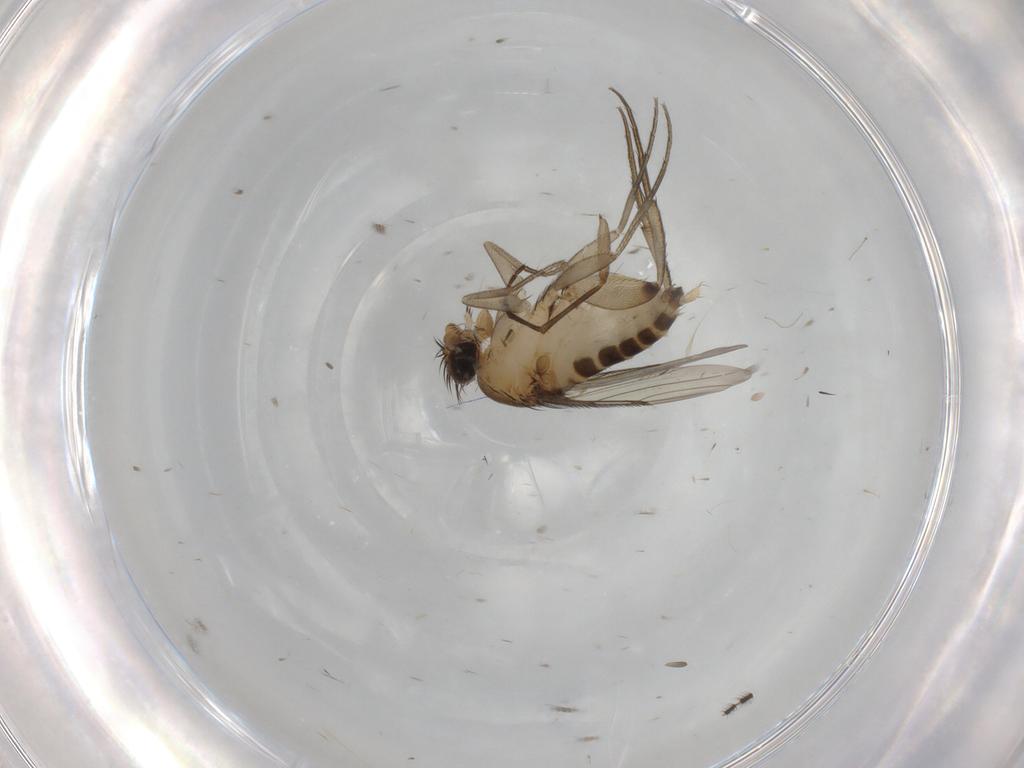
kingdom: Animalia
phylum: Arthropoda
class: Insecta
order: Diptera
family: Phoridae
